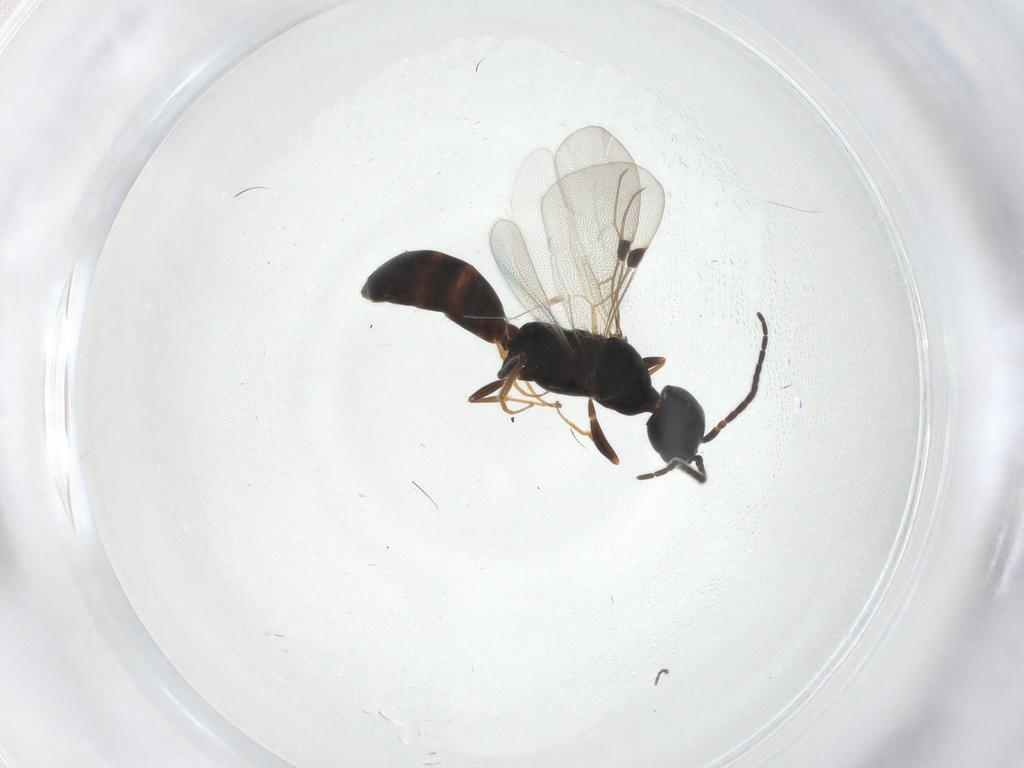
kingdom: Animalia
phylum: Arthropoda
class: Insecta
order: Hymenoptera
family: Bethylidae
